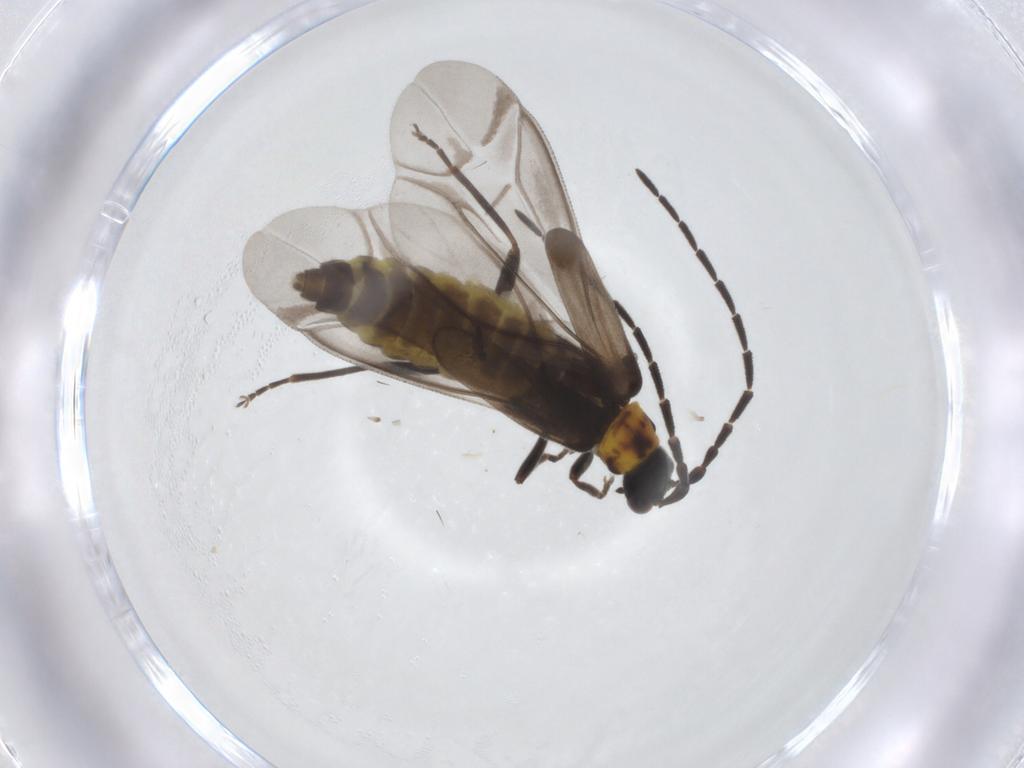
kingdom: Animalia
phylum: Arthropoda
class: Insecta
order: Coleoptera
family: Cantharidae
